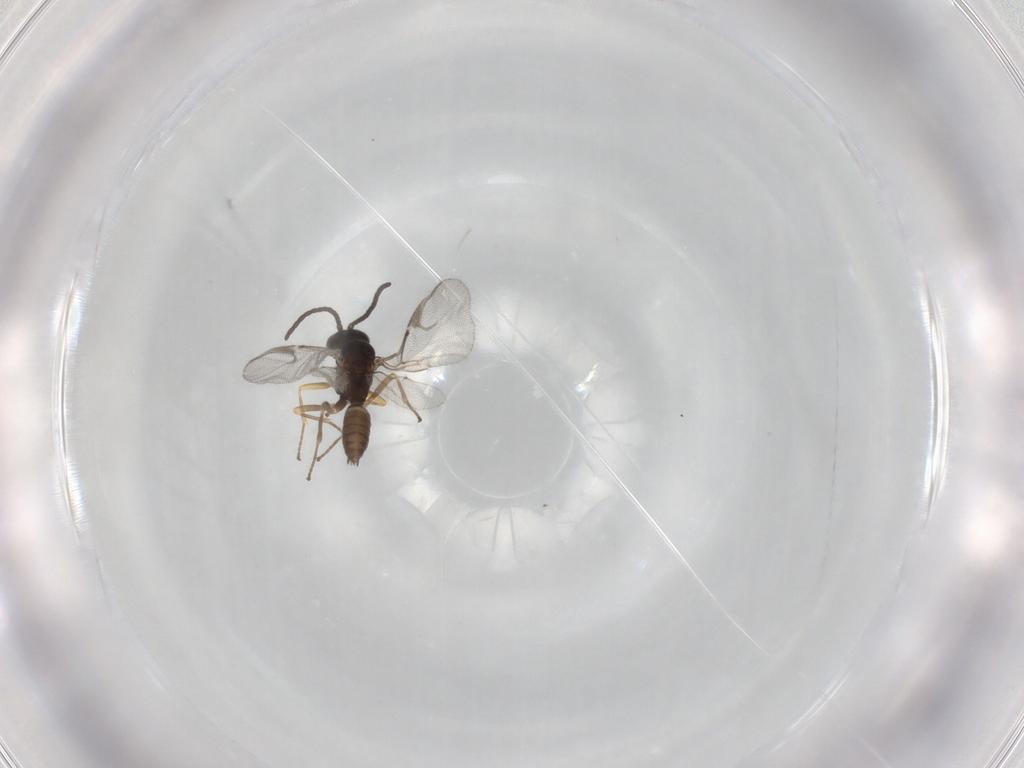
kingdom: Animalia
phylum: Arthropoda
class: Insecta
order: Hymenoptera
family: Braconidae
